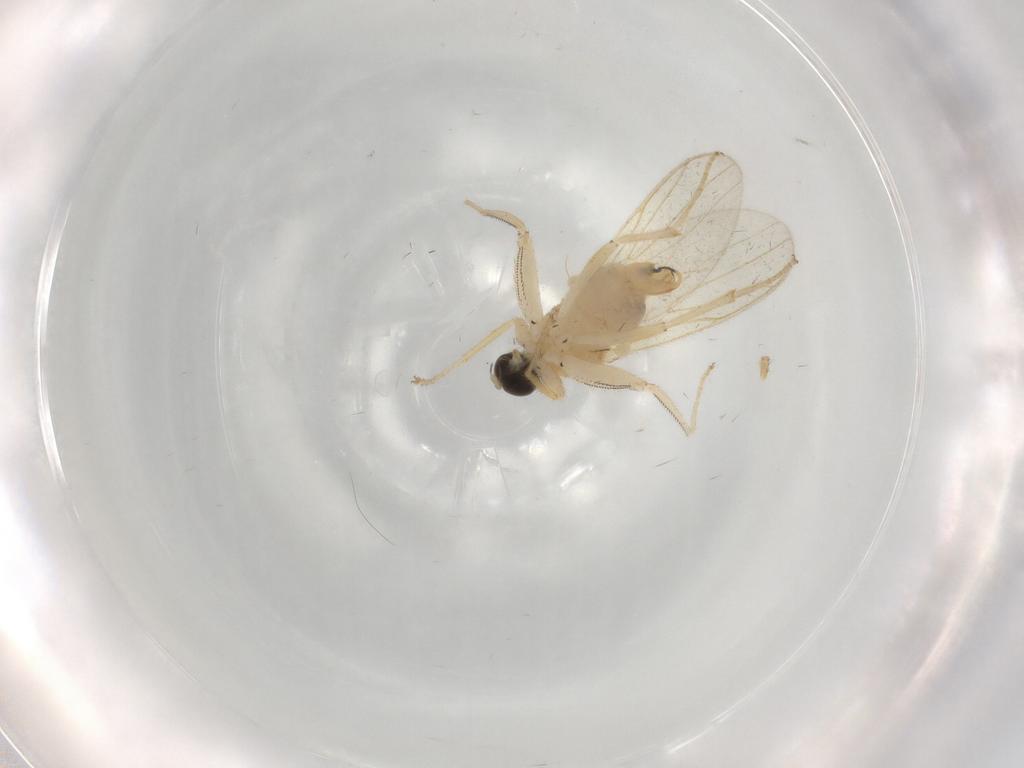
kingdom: Animalia
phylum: Arthropoda
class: Insecta
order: Diptera
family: Muscidae
